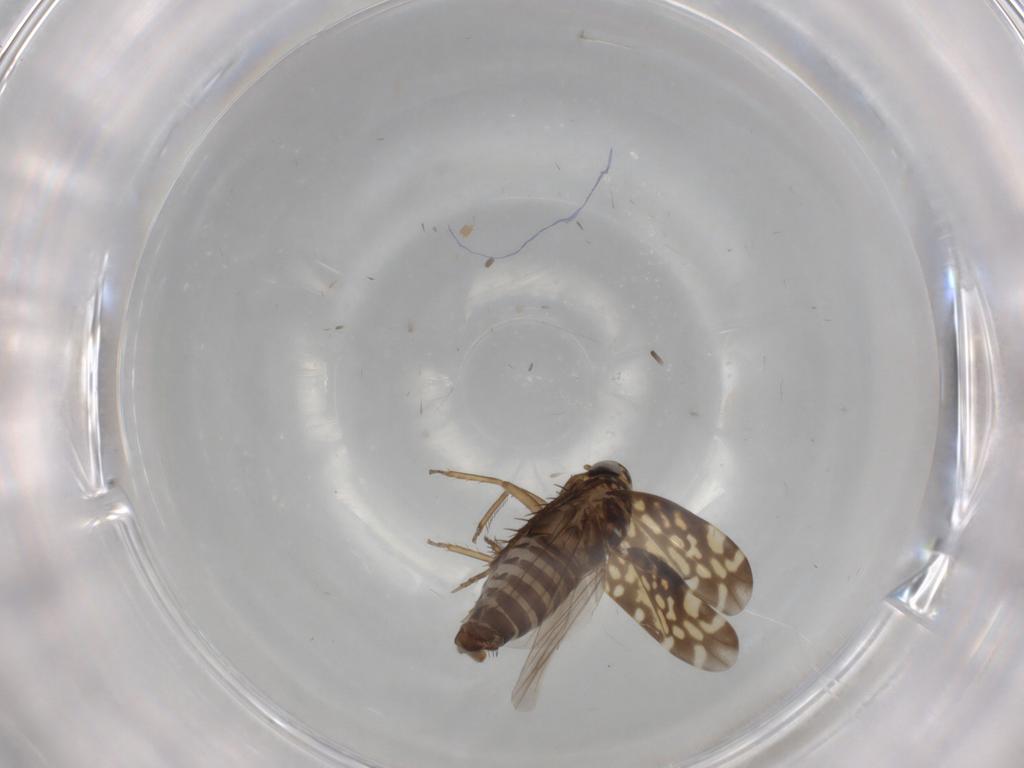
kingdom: Animalia
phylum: Arthropoda
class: Insecta
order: Hemiptera
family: Cicadellidae
